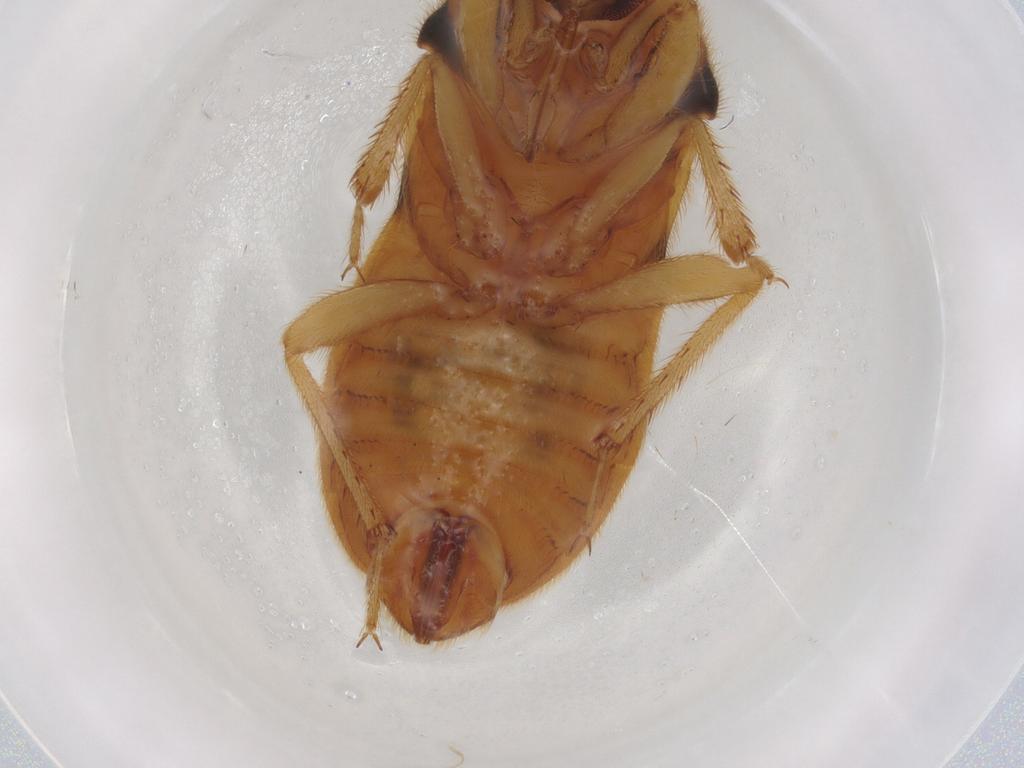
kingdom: Animalia
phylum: Arthropoda
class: Insecta
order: Hemiptera
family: Nabidae
